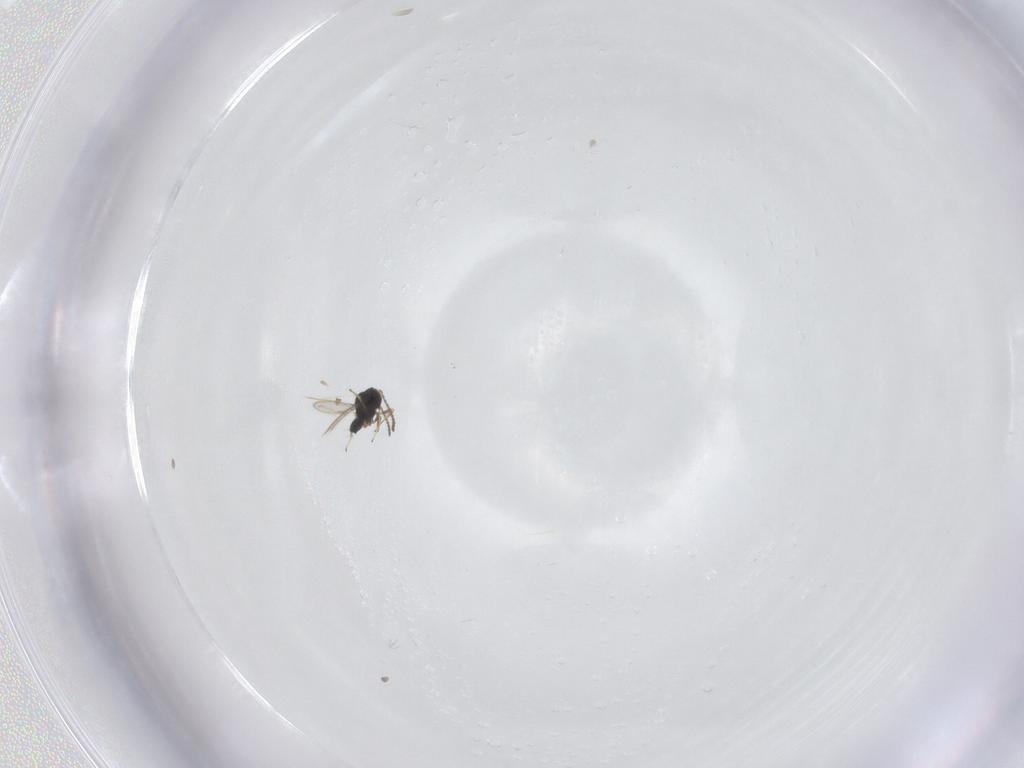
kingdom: Animalia
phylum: Arthropoda
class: Insecta
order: Hymenoptera
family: Scelionidae
